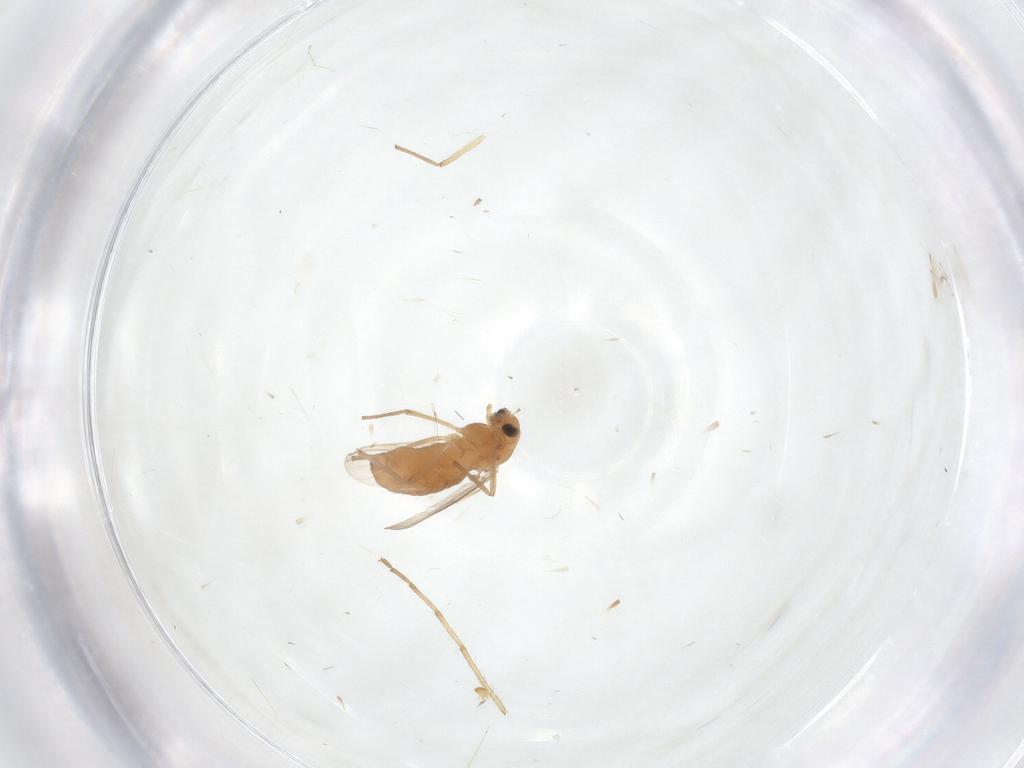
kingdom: Animalia
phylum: Arthropoda
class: Insecta
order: Diptera
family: Chironomidae
